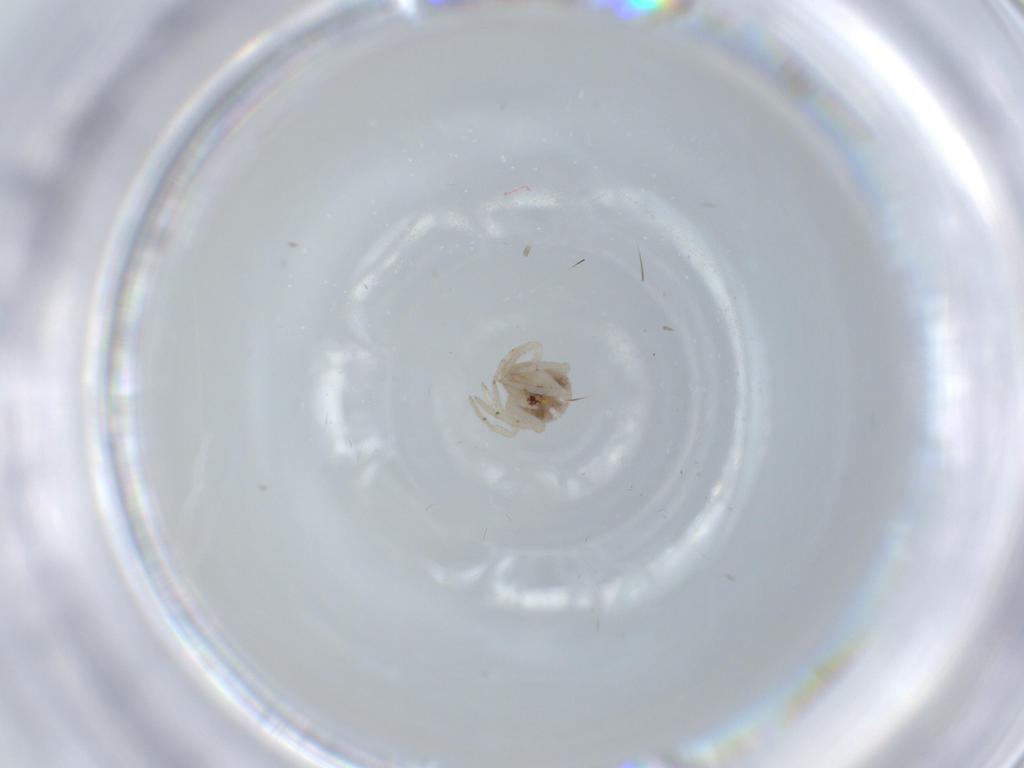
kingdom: Animalia
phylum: Arthropoda
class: Arachnida
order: Araneae
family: Theridiidae
